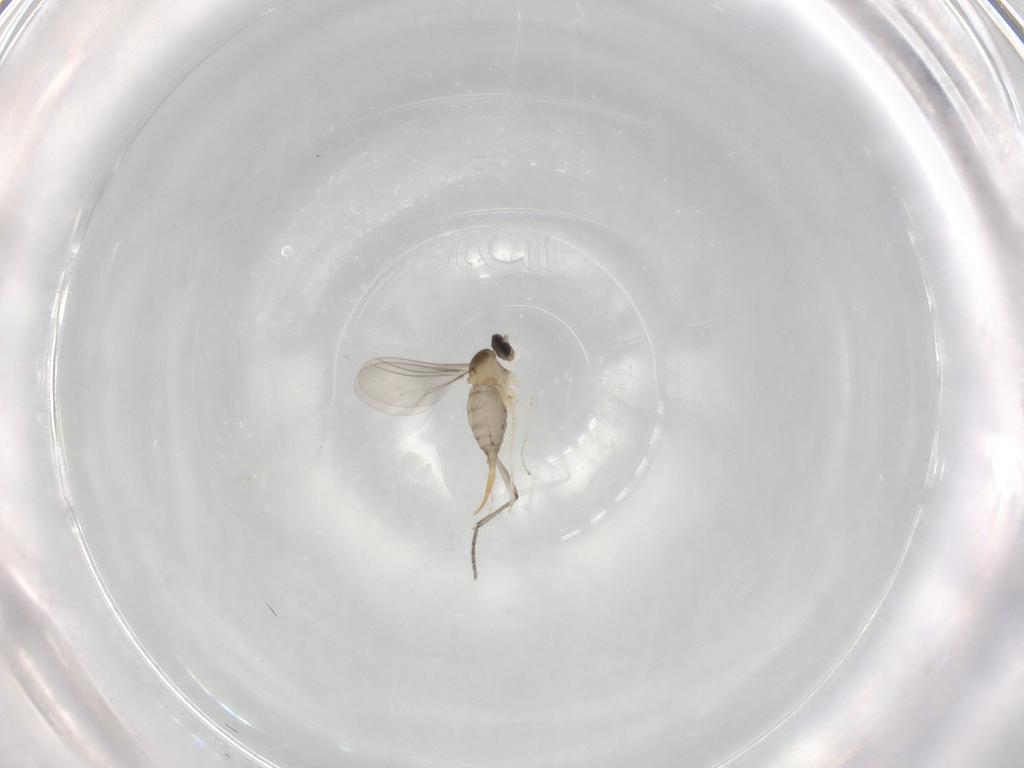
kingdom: Animalia
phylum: Arthropoda
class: Insecta
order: Diptera
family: Cecidomyiidae
